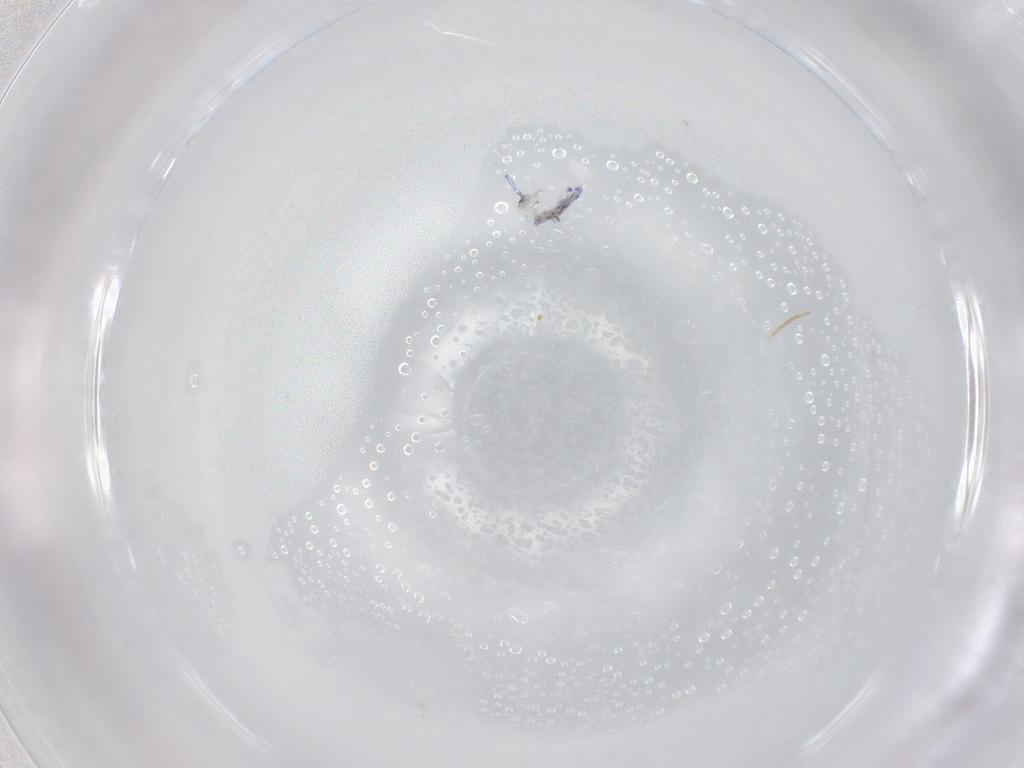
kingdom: Animalia
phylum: Arthropoda
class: Collembola
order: Entomobryomorpha
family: Entomobryidae
